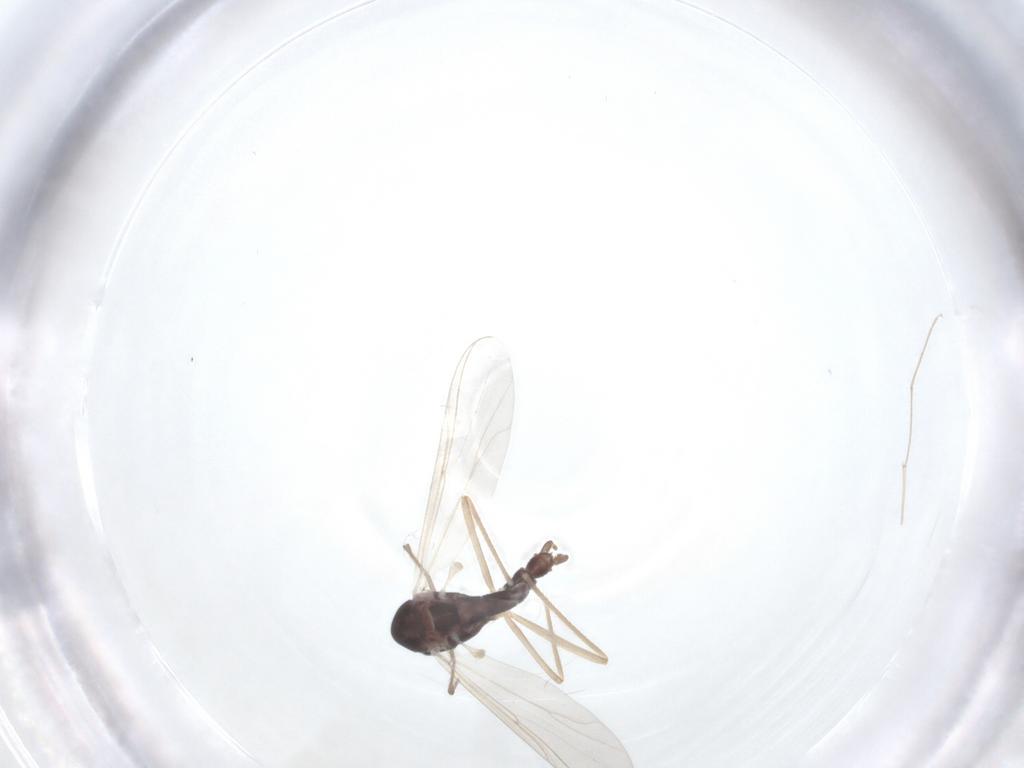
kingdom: Animalia
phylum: Arthropoda
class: Insecta
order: Diptera
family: Chironomidae
